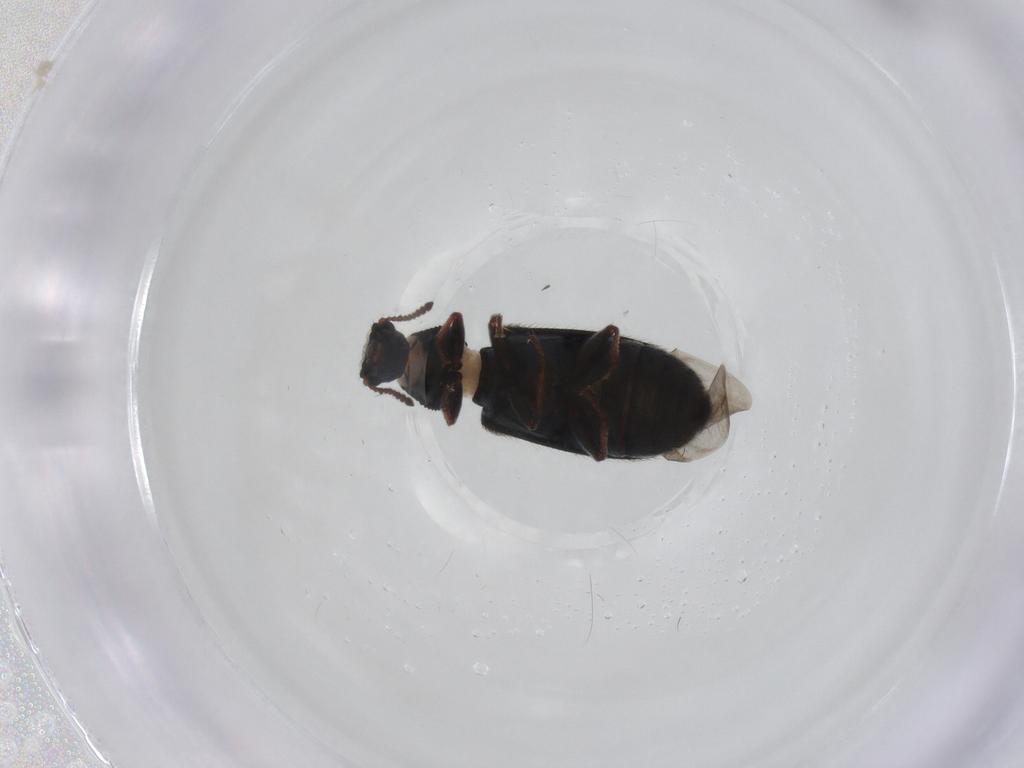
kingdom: Animalia
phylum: Arthropoda
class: Insecta
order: Coleoptera
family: Melyridae
